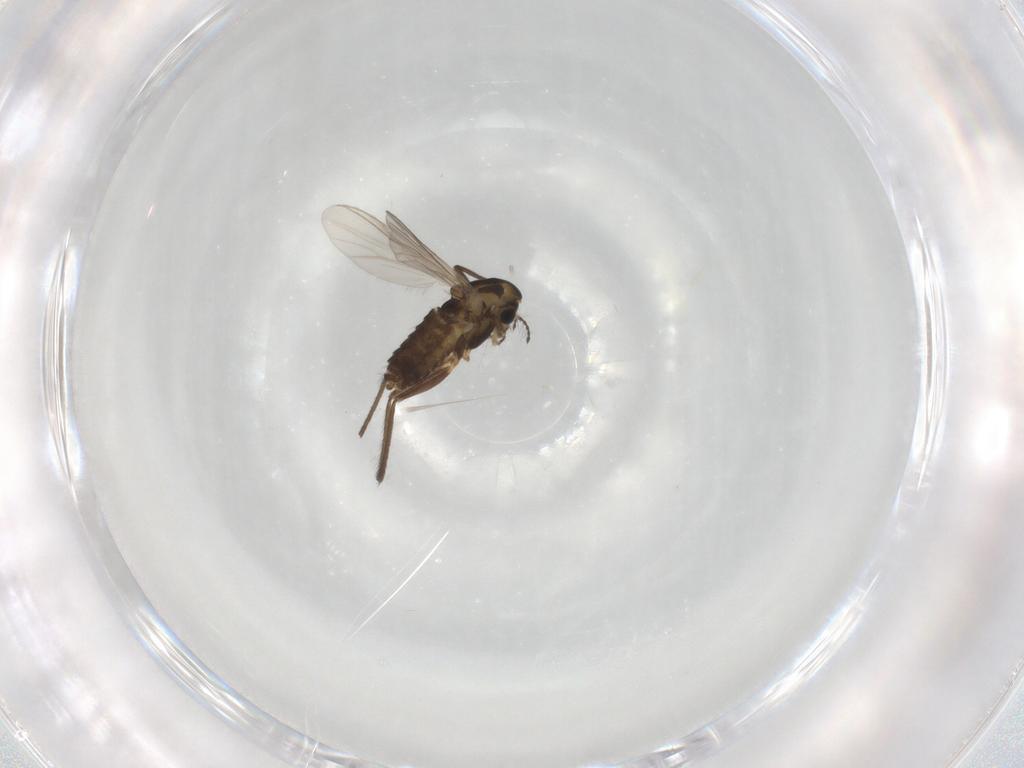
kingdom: Animalia
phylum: Arthropoda
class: Insecta
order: Diptera
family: Chironomidae
